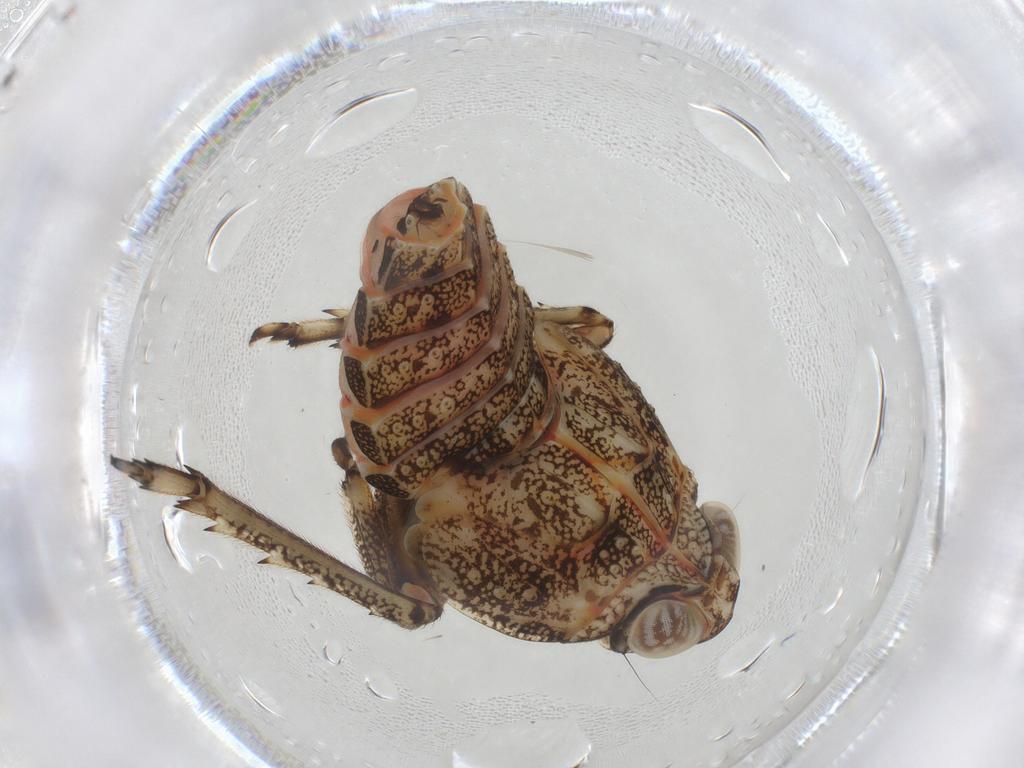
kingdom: Animalia
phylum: Arthropoda
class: Insecta
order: Hemiptera
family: Issidae
